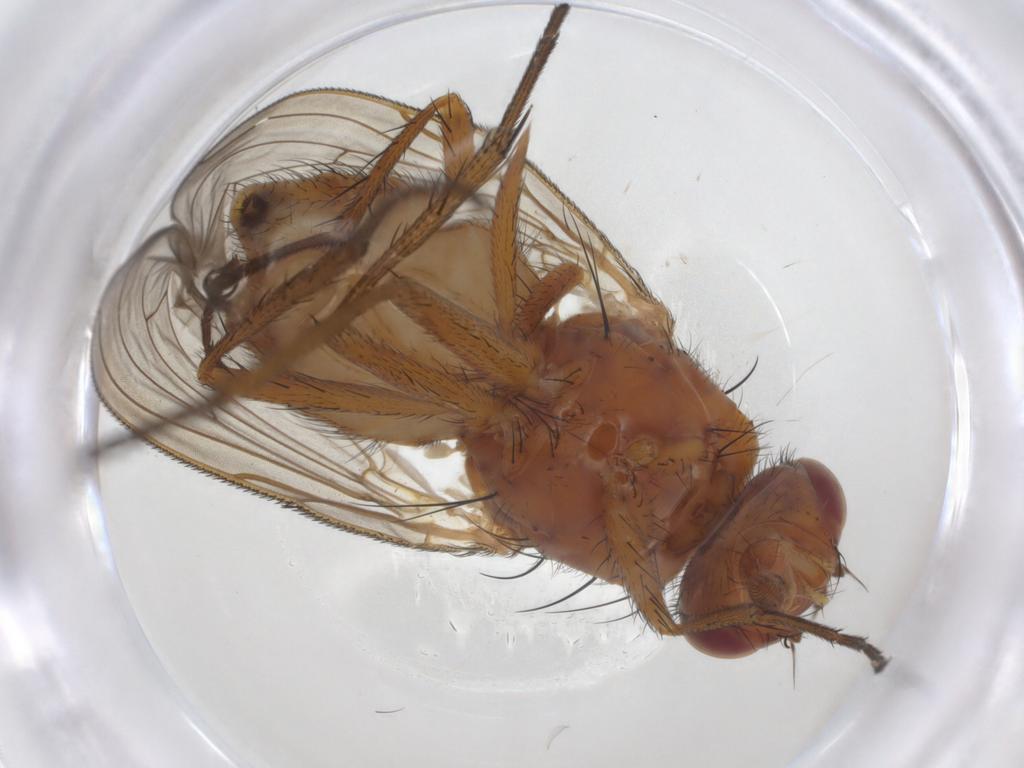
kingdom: Animalia
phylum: Arthropoda
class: Insecta
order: Diptera
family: Anthomyiidae
